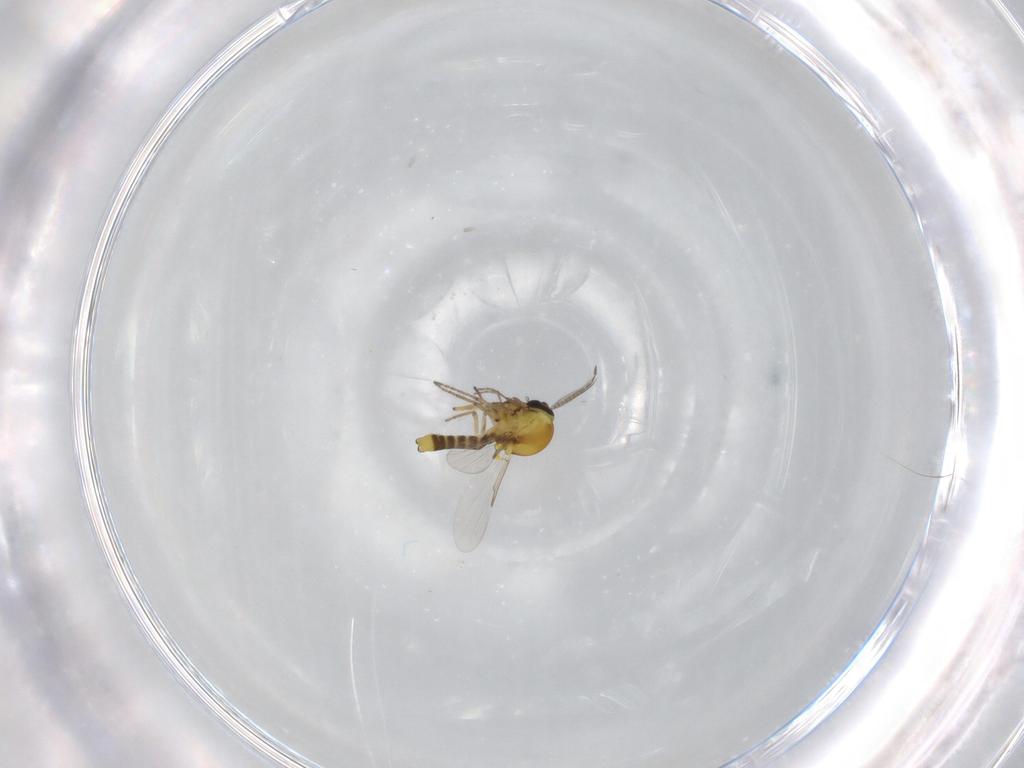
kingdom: Animalia
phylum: Arthropoda
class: Insecta
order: Diptera
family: Ceratopogonidae
